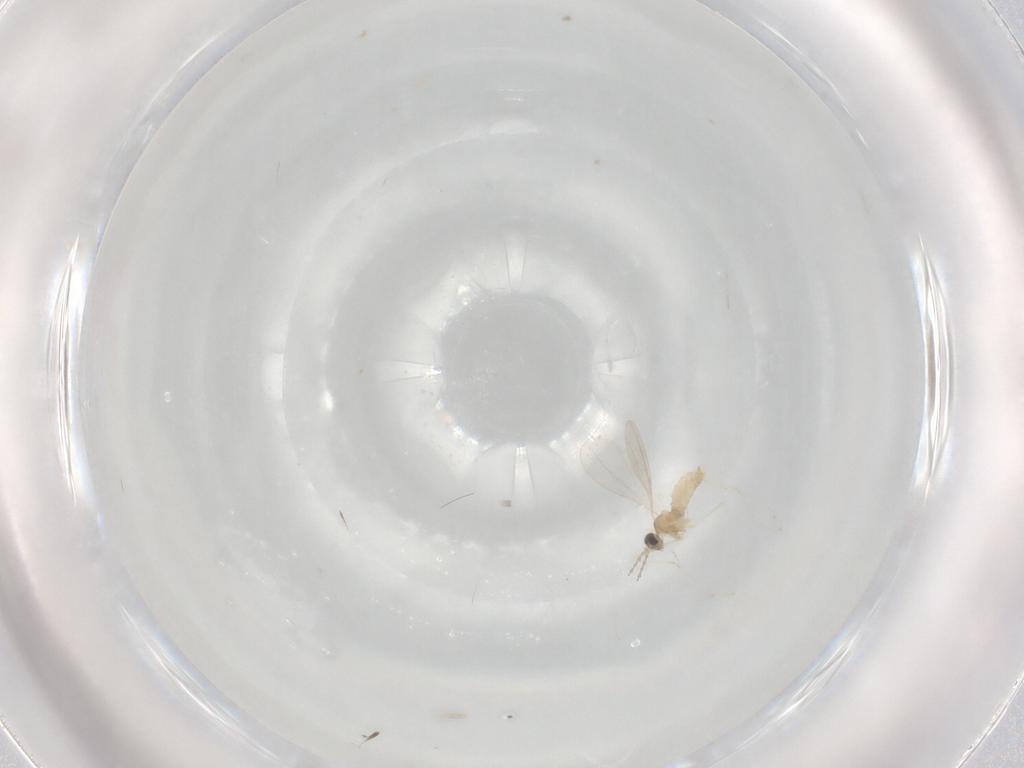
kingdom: Animalia
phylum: Arthropoda
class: Insecta
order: Diptera
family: Cecidomyiidae
